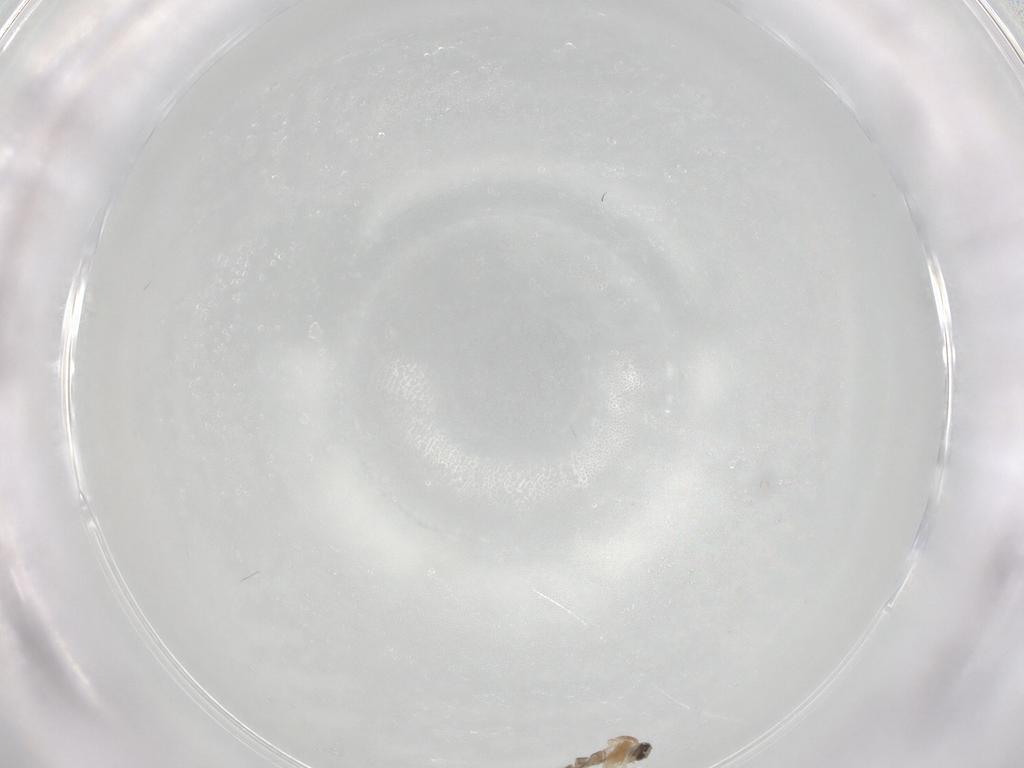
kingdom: Animalia
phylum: Arthropoda
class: Insecta
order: Diptera
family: Cecidomyiidae
